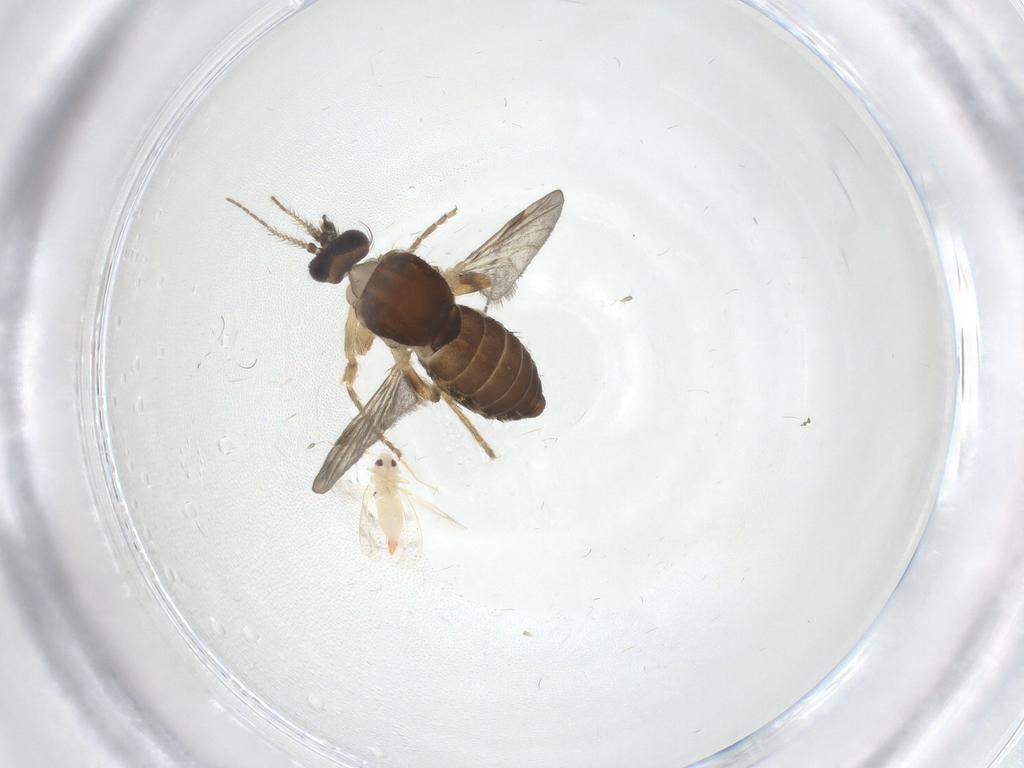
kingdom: Animalia
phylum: Arthropoda
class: Insecta
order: Diptera
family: Ceratopogonidae
